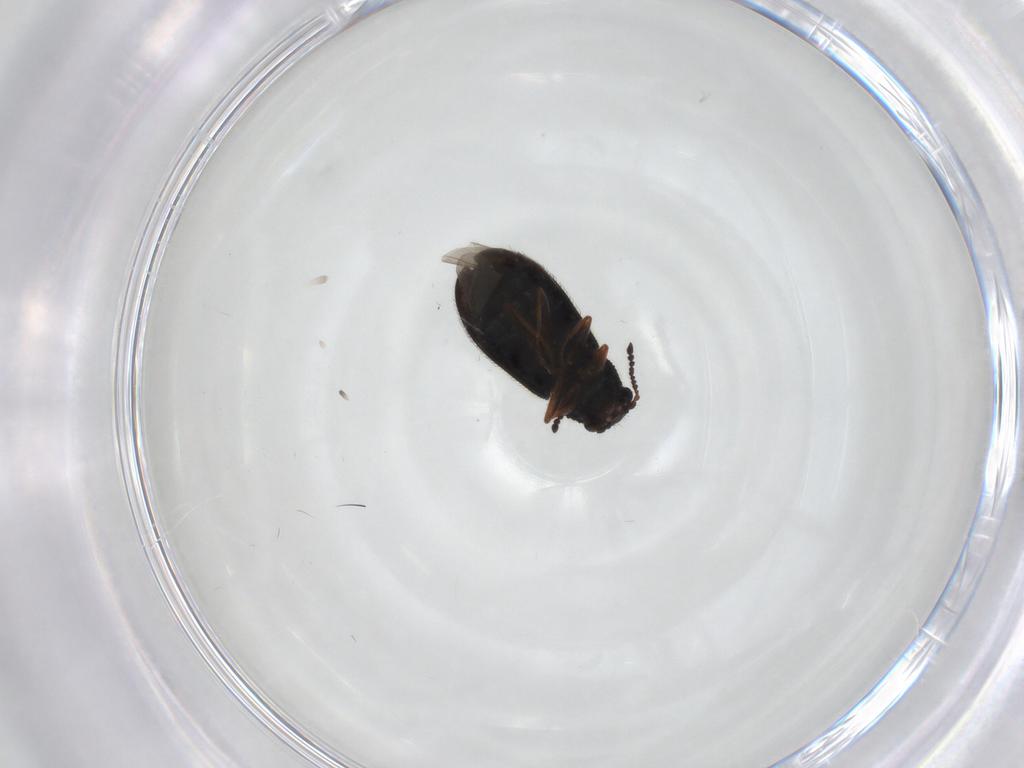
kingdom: Animalia
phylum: Arthropoda
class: Insecta
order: Coleoptera
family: Melyridae
